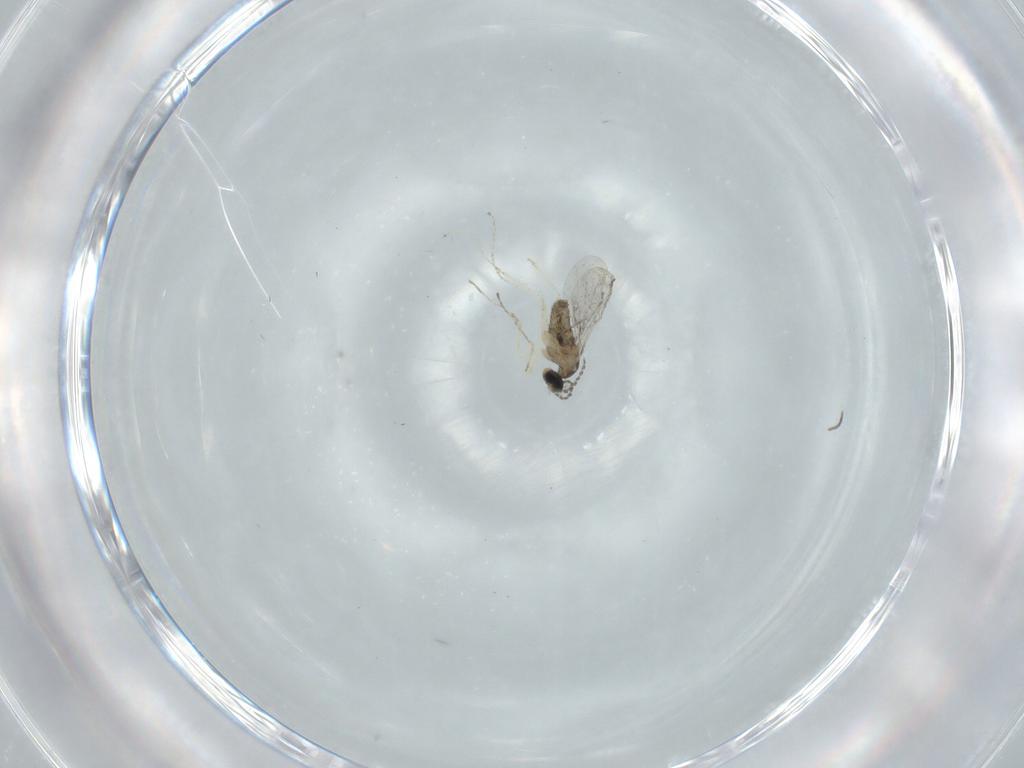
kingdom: Animalia
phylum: Arthropoda
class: Insecta
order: Diptera
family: Sciaridae
